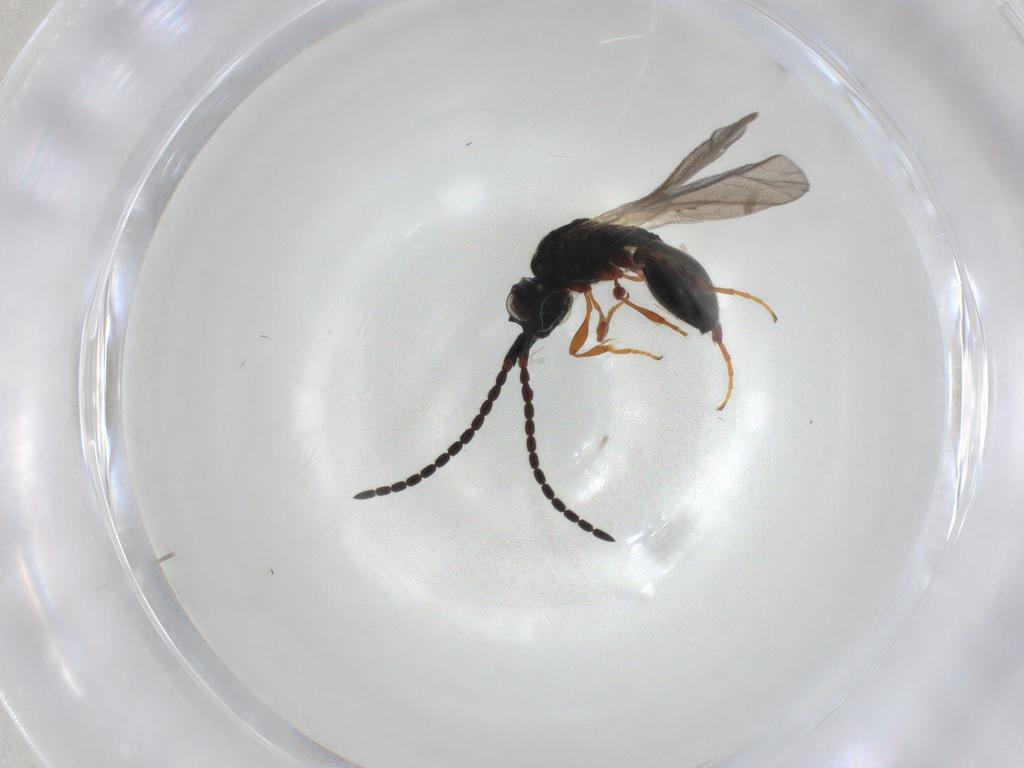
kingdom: Animalia
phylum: Arthropoda
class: Insecta
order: Hymenoptera
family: Diapriidae
